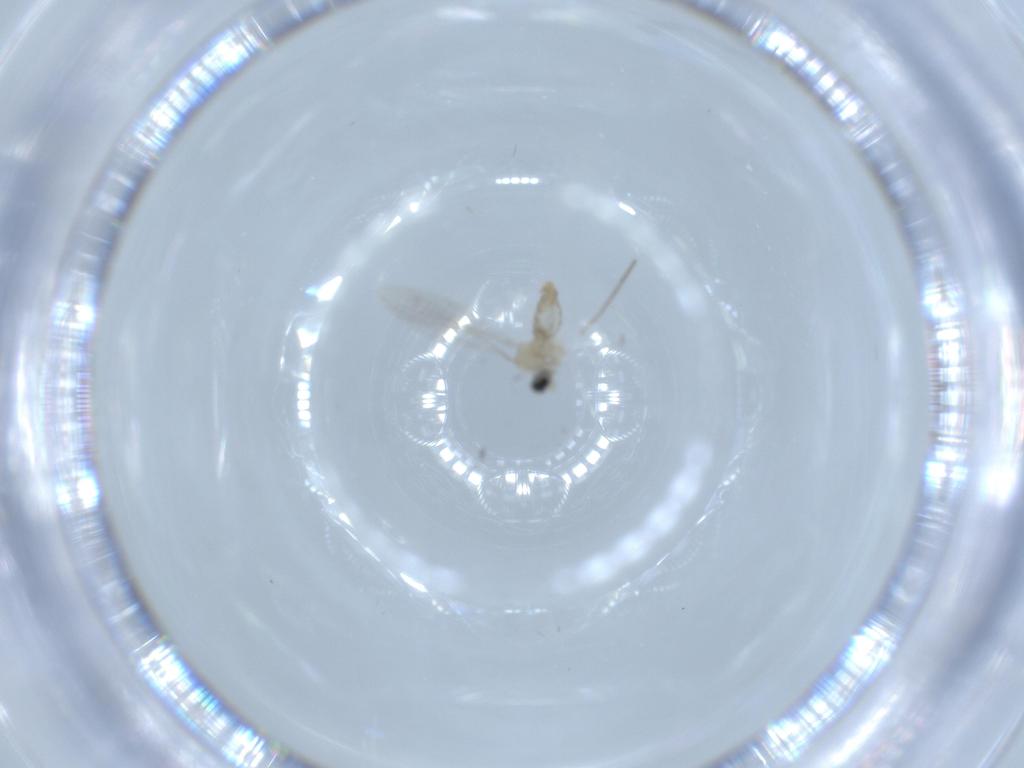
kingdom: Animalia
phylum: Arthropoda
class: Insecta
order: Diptera
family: Cecidomyiidae
